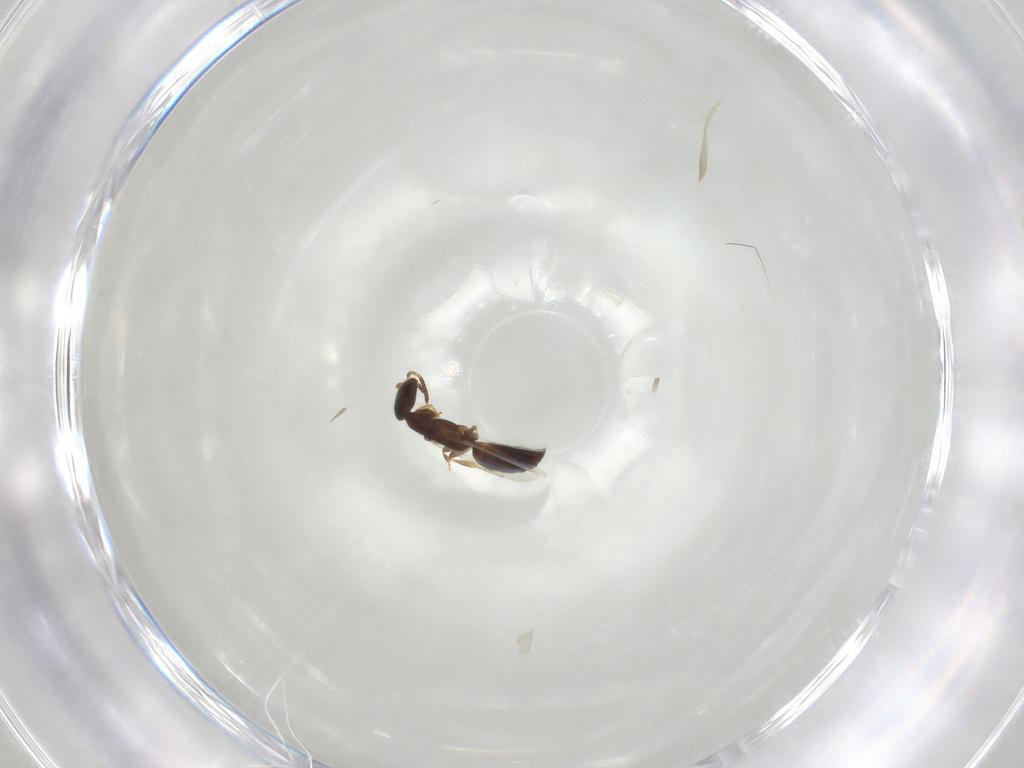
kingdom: Animalia
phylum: Arthropoda
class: Insecta
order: Hymenoptera
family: Bethylidae
